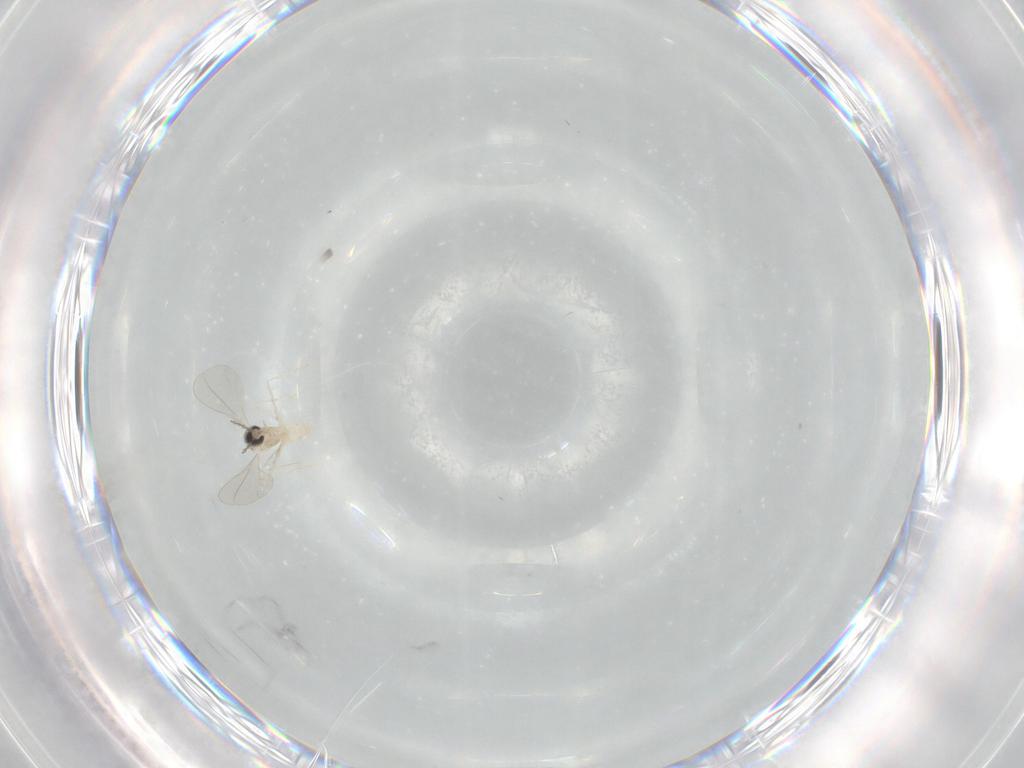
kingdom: Animalia
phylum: Arthropoda
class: Insecta
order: Diptera
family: Cecidomyiidae
